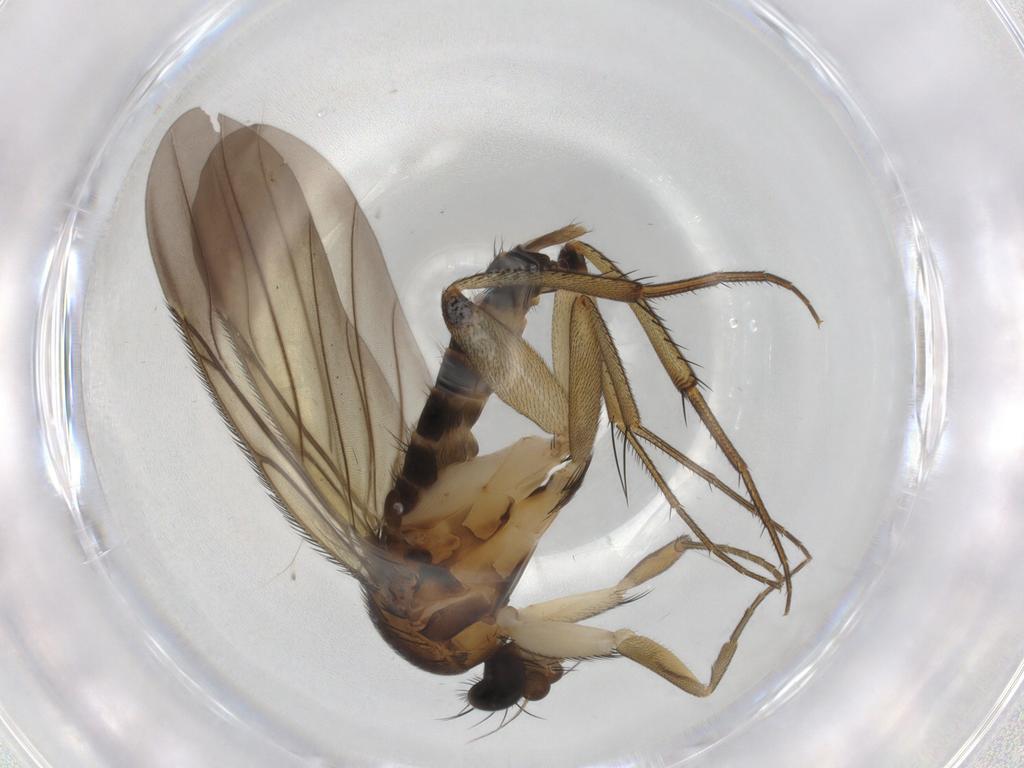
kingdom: Animalia
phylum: Arthropoda
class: Insecta
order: Diptera
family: Phoridae
